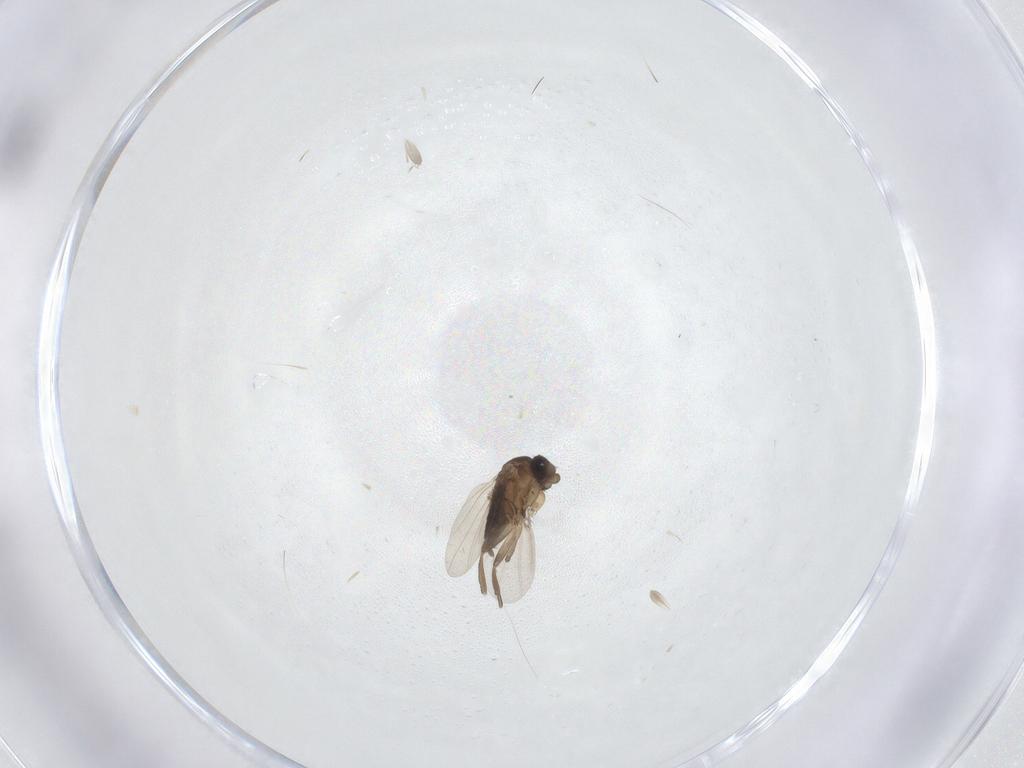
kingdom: Animalia
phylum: Arthropoda
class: Insecta
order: Diptera
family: Phoridae
